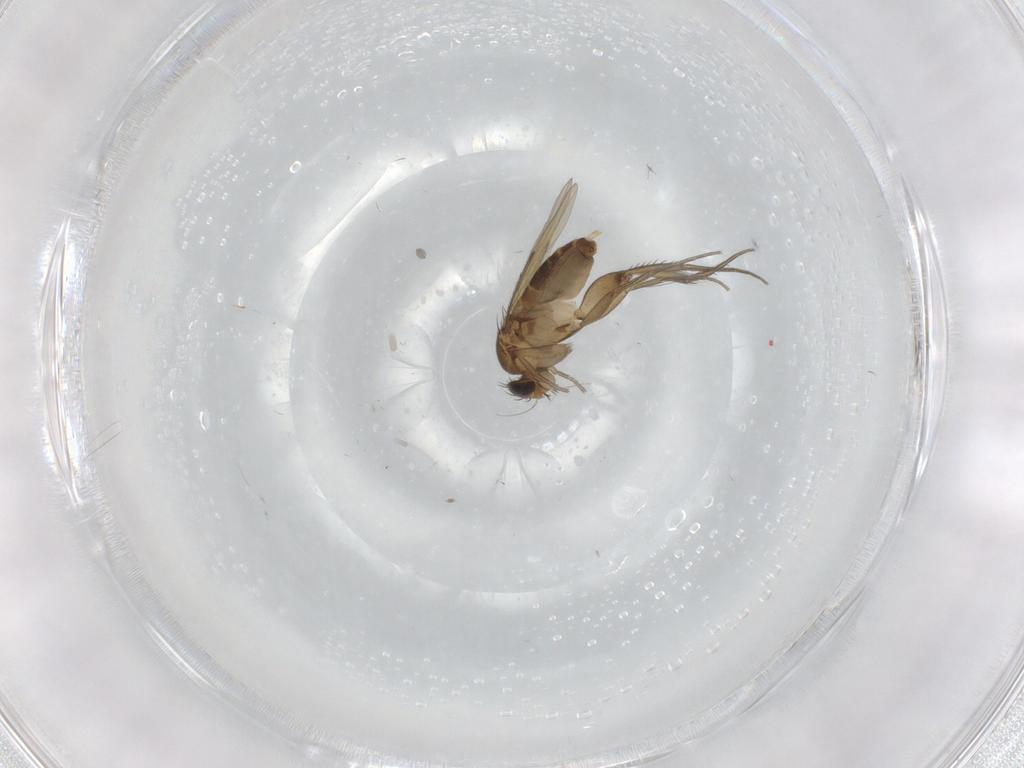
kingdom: Animalia
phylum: Arthropoda
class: Insecta
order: Diptera
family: Phoridae
